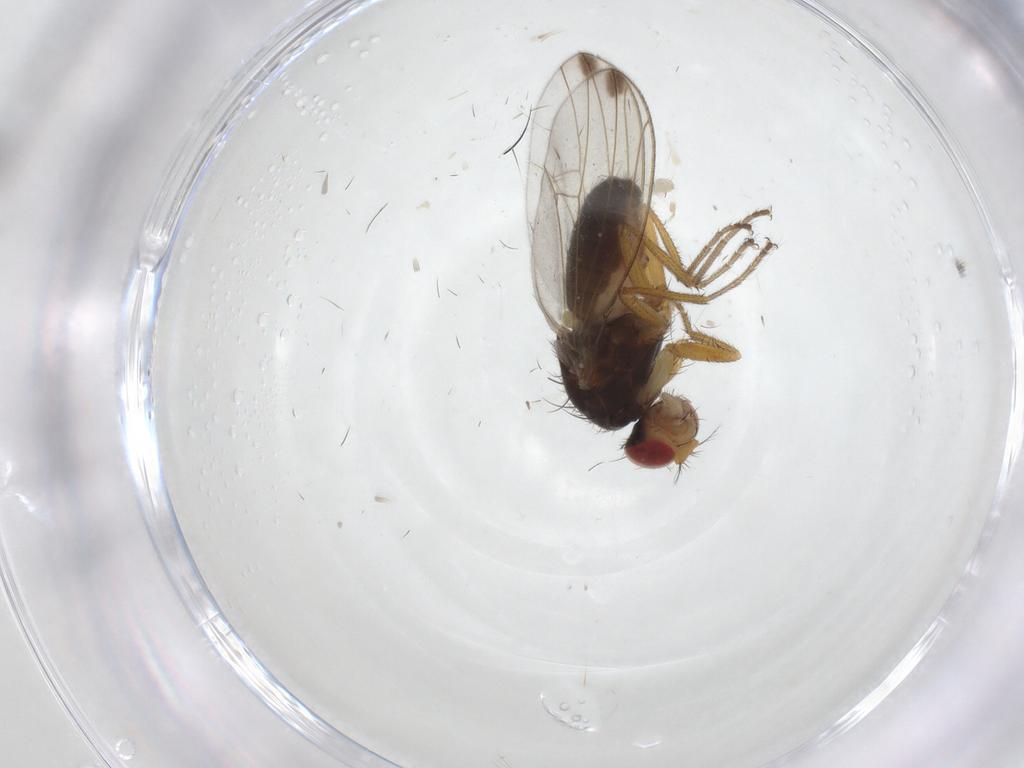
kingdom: Animalia
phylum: Arthropoda
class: Insecta
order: Diptera
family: Drosophilidae
